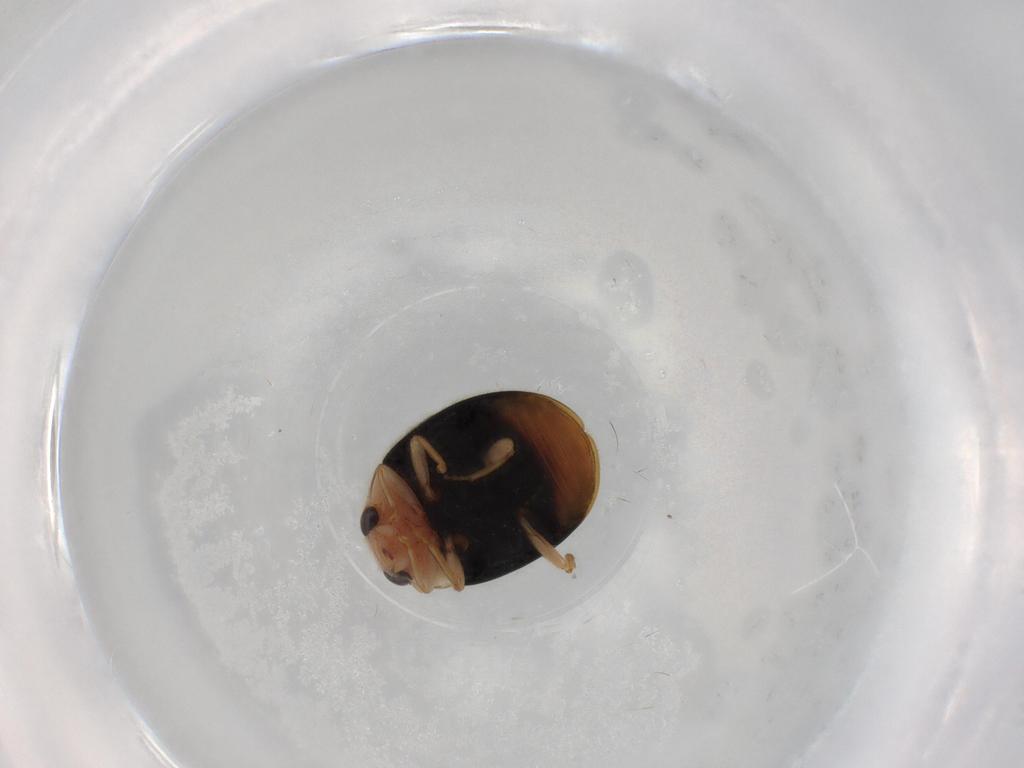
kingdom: Animalia
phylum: Arthropoda
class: Insecta
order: Coleoptera
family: Coccinellidae
